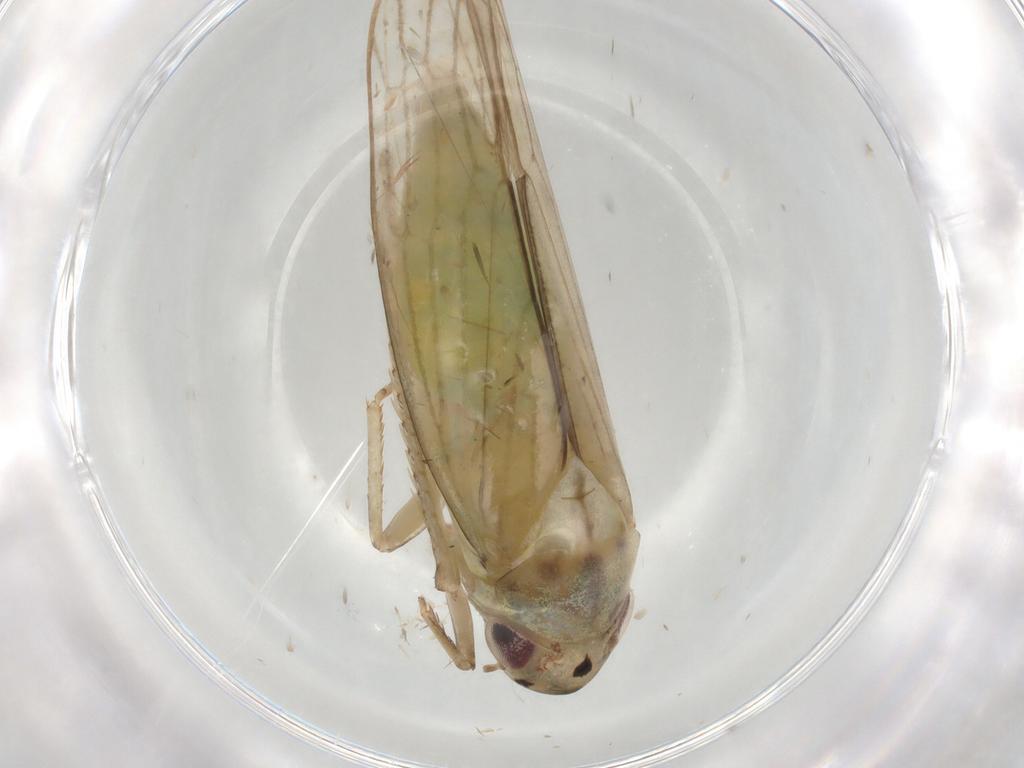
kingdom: Animalia
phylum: Arthropoda
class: Insecta
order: Hemiptera
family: Cicadellidae
